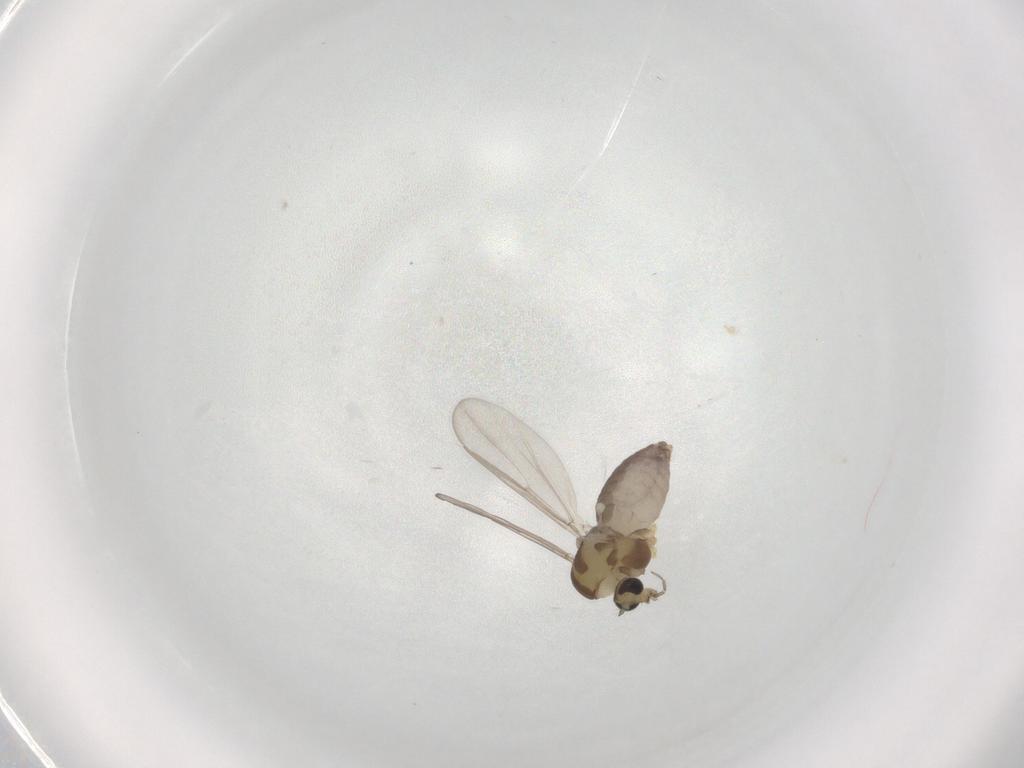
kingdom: Animalia
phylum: Arthropoda
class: Insecta
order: Diptera
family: Chironomidae
